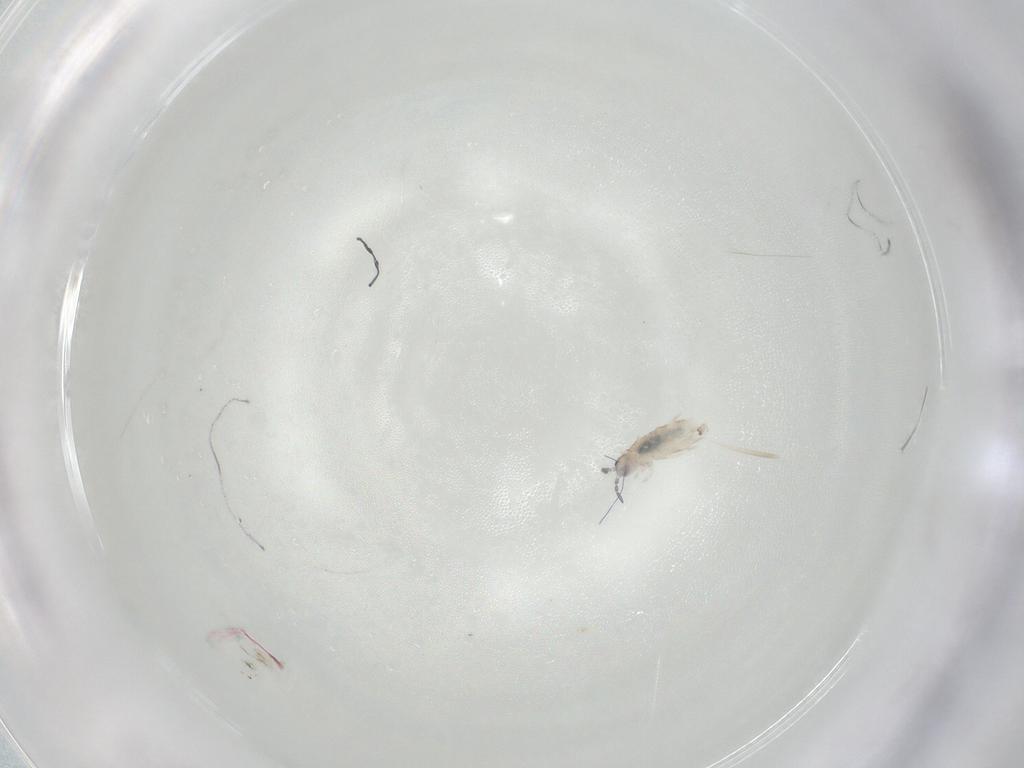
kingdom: Animalia
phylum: Arthropoda
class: Collembola
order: Entomobryomorpha
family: Entomobryidae
